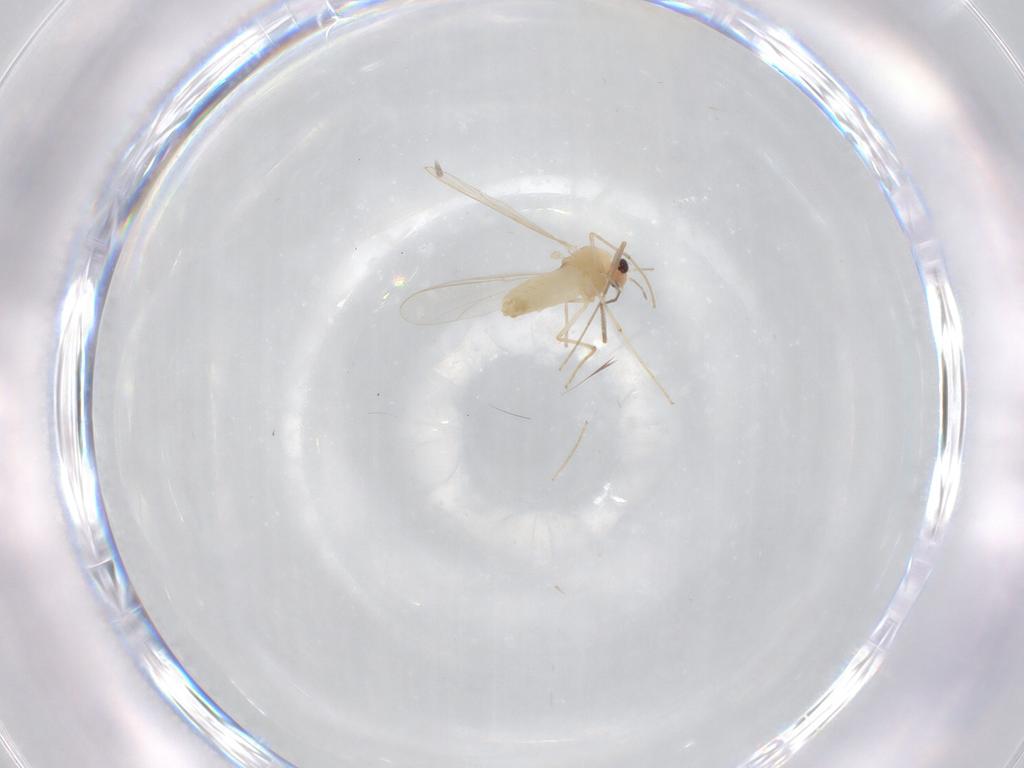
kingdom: Animalia
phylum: Arthropoda
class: Insecta
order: Diptera
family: Chironomidae
